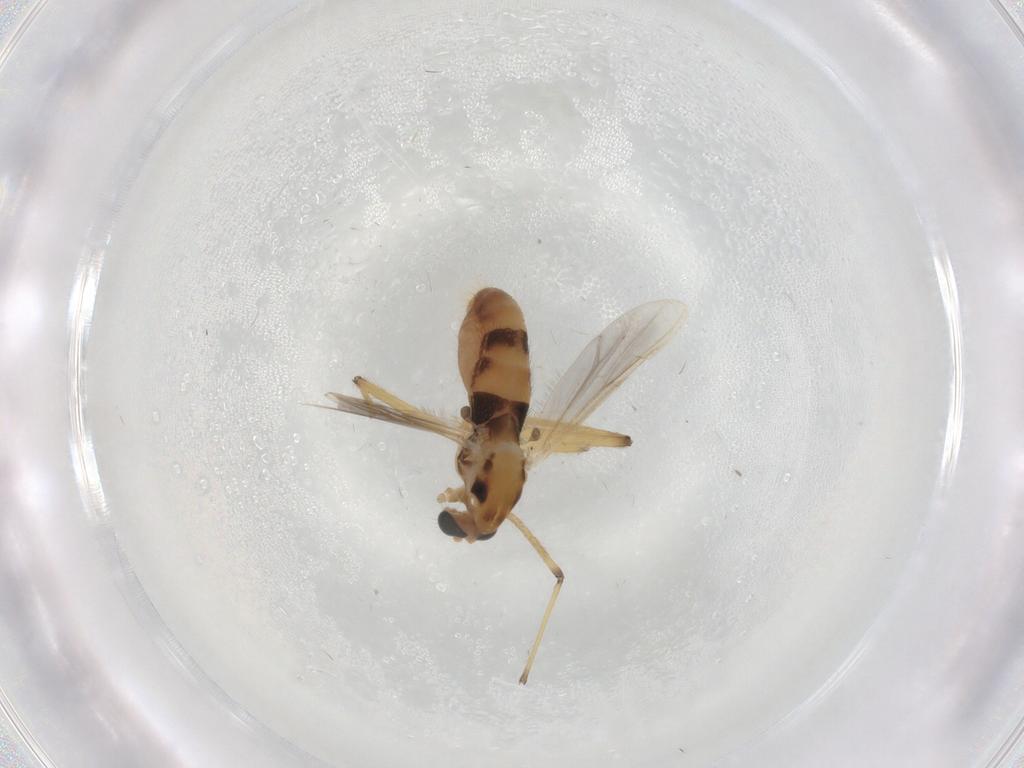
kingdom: Animalia
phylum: Arthropoda
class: Insecta
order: Diptera
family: Chironomidae
